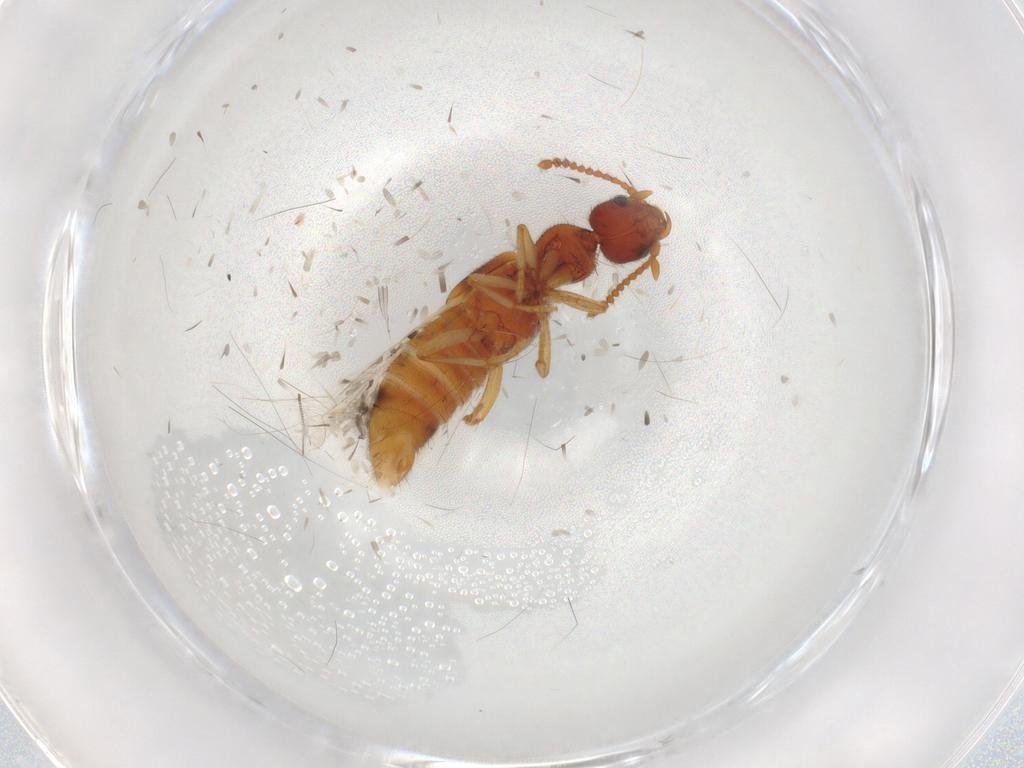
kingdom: Animalia
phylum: Arthropoda
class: Insecta
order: Coleoptera
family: Staphylinidae
